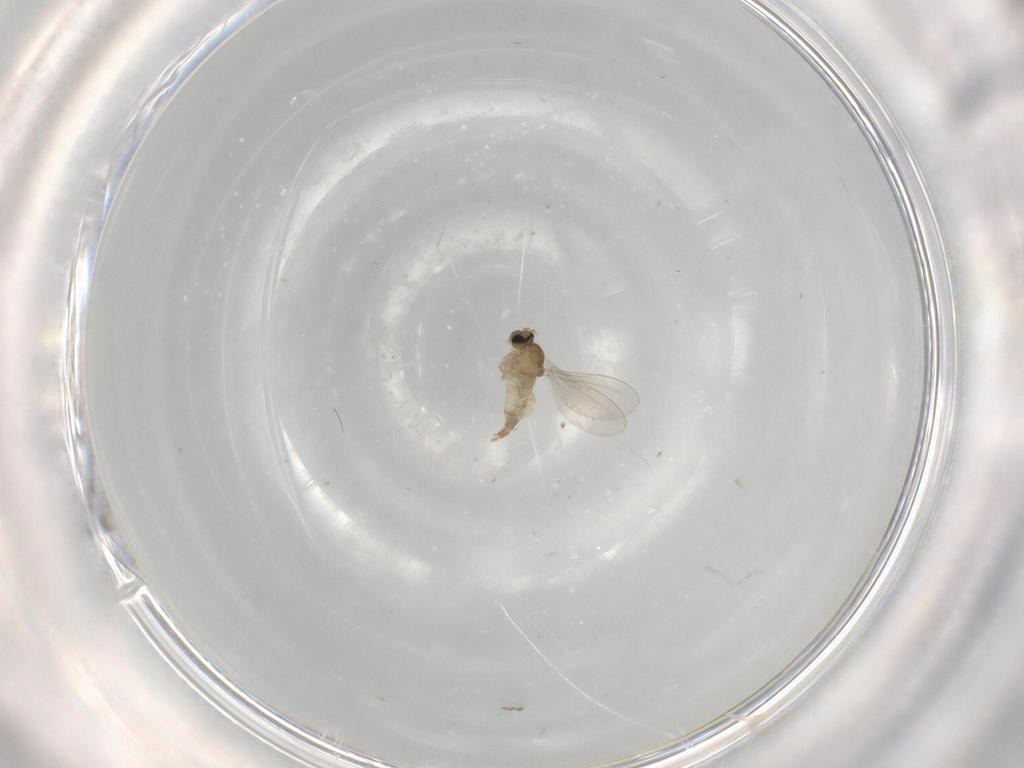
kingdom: Animalia
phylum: Arthropoda
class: Insecta
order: Diptera
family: Cecidomyiidae
